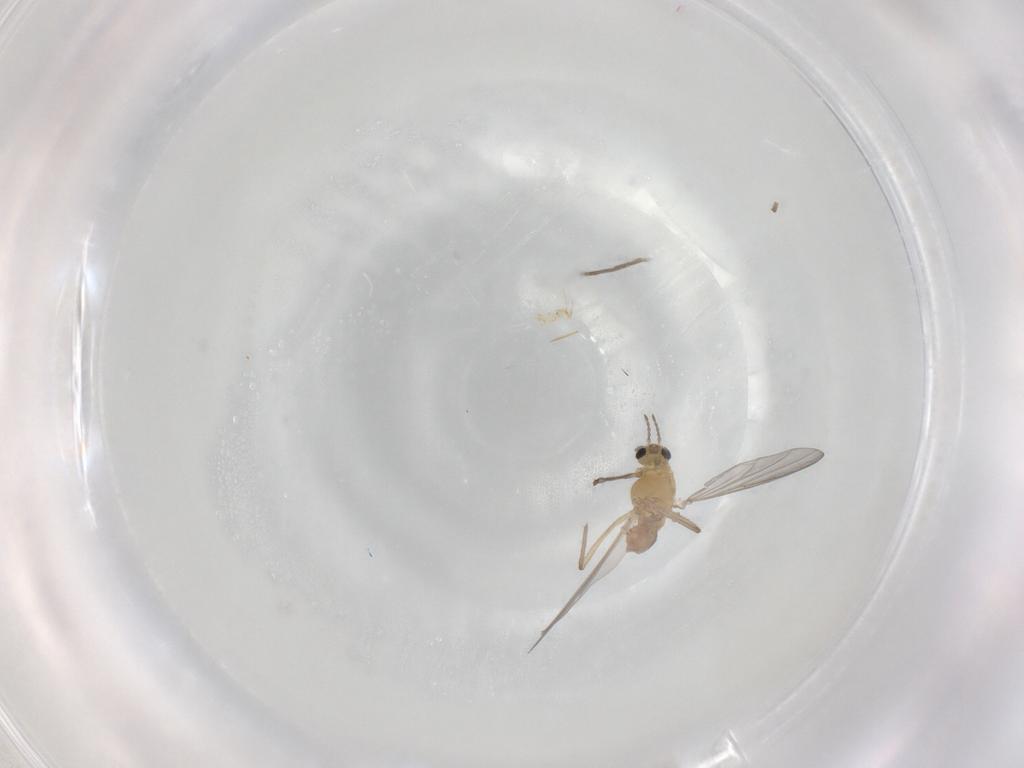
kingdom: Animalia
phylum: Arthropoda
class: Insecta
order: Diptera
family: Chironomidae
